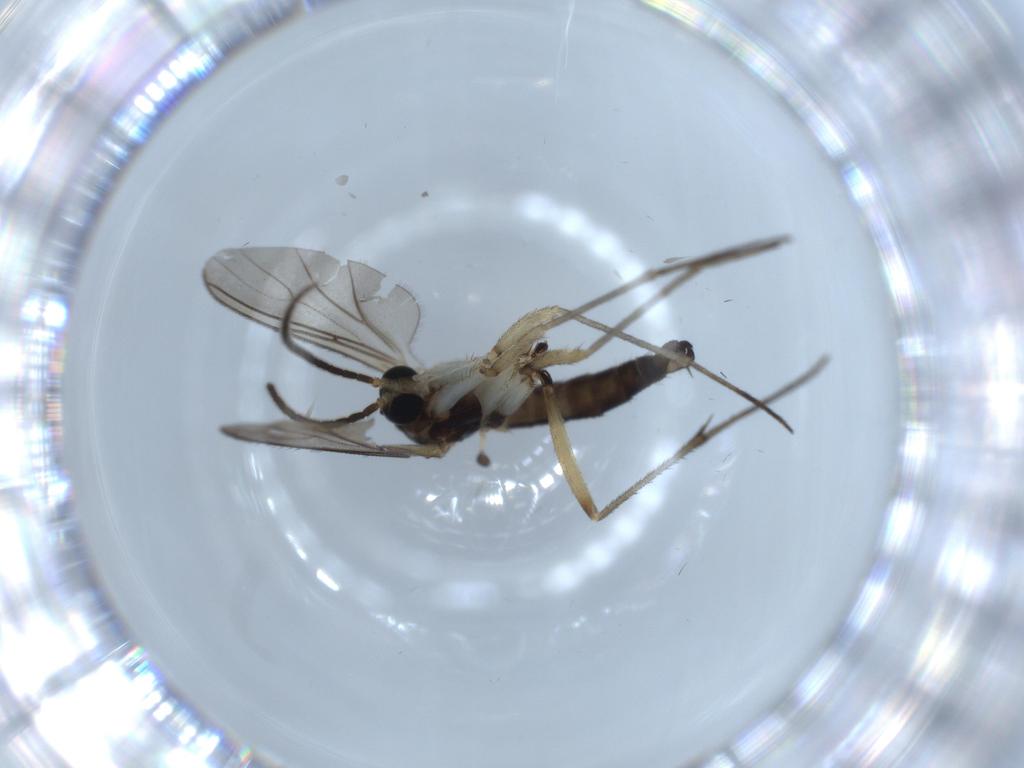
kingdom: Animalia
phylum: Arthropoda
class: Insecta
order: Diptera
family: Sciaridae
